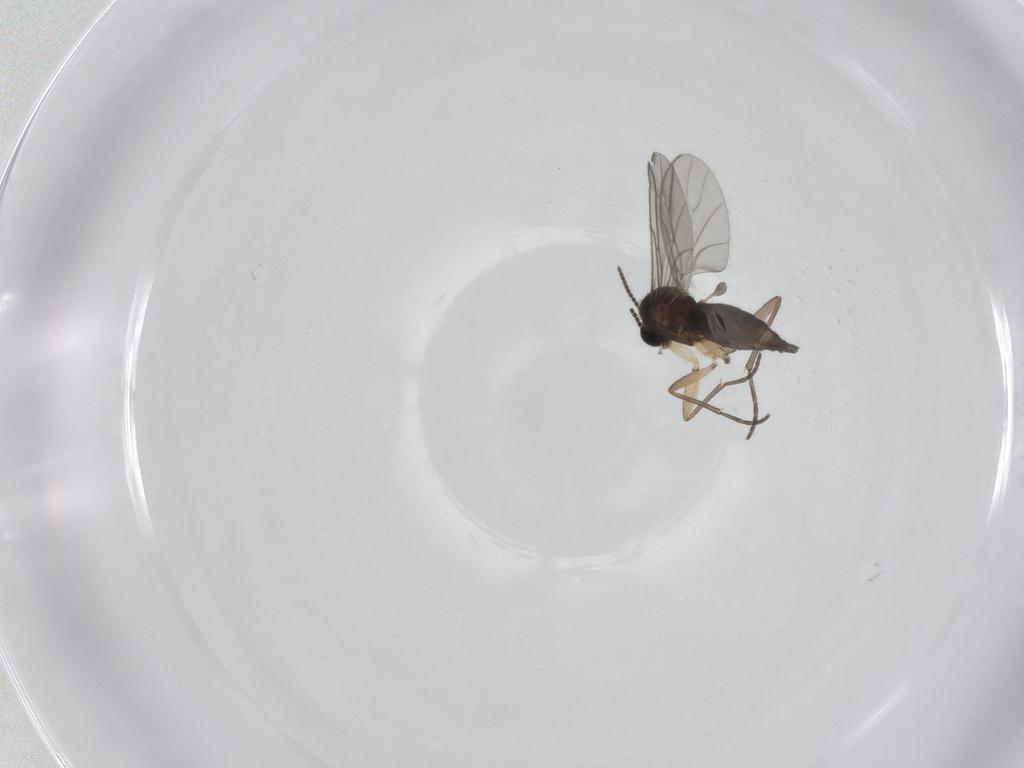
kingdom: Animalia
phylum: Arthropoda
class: Insecta
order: Diptera
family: Sciaridae
